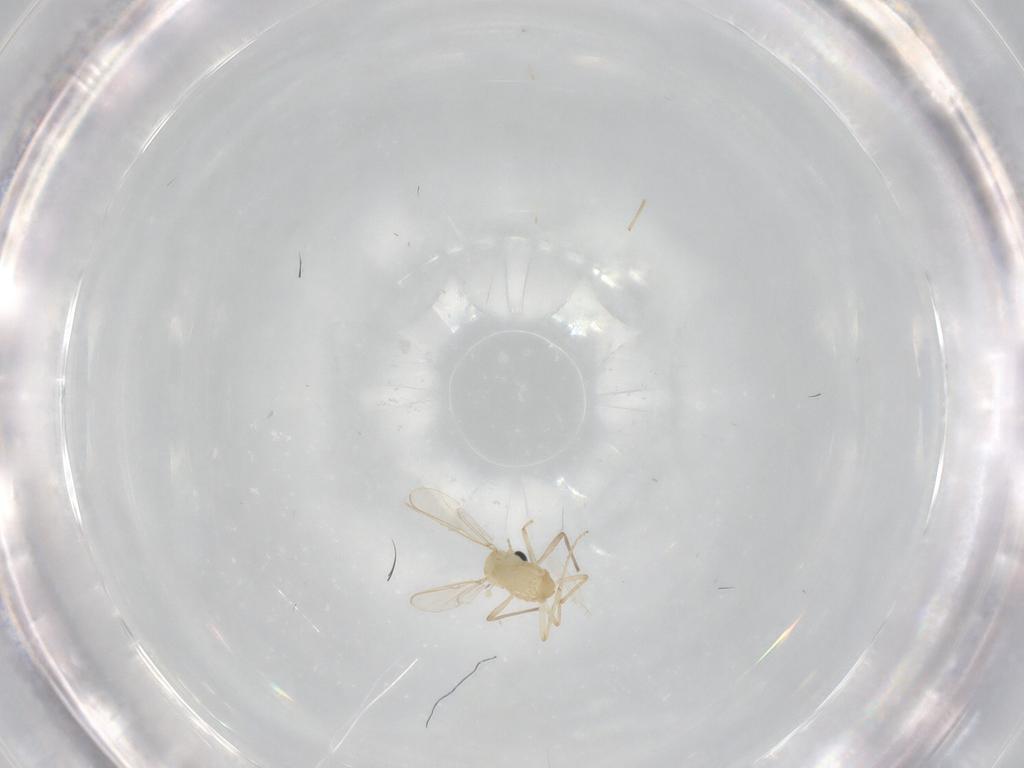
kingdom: Animalia
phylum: Arthropoda
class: Insecta
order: Diptera
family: Chironomidae
